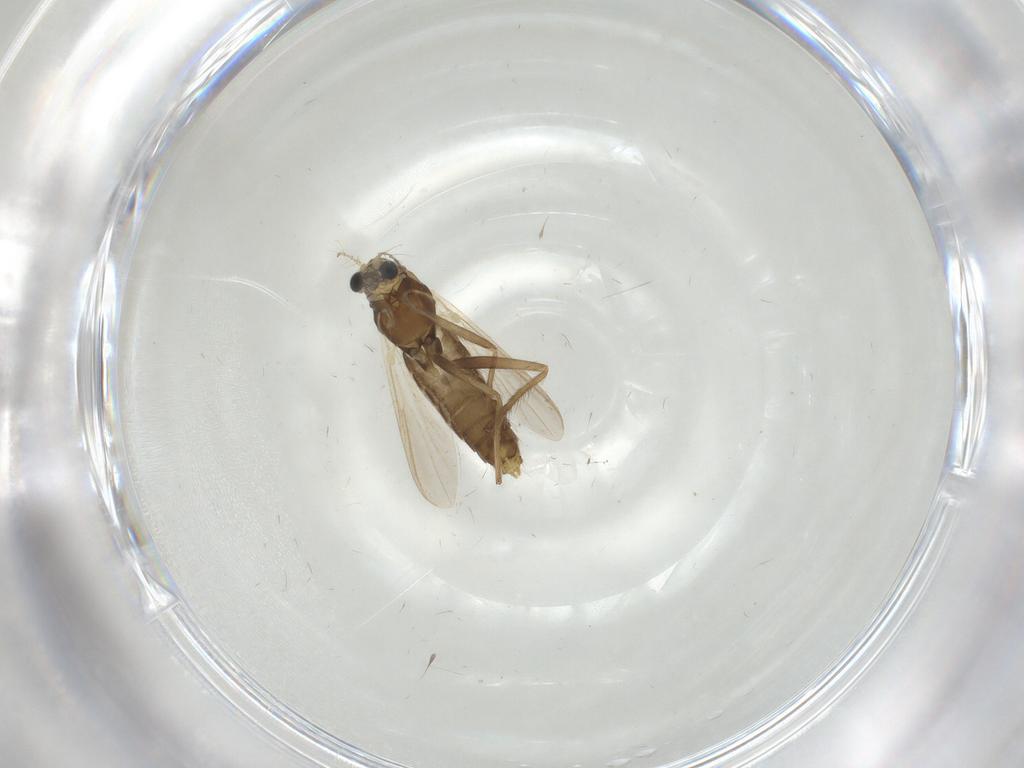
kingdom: Animalia
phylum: Arthropoda
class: Insecta
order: Diptera
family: Chironomidae
